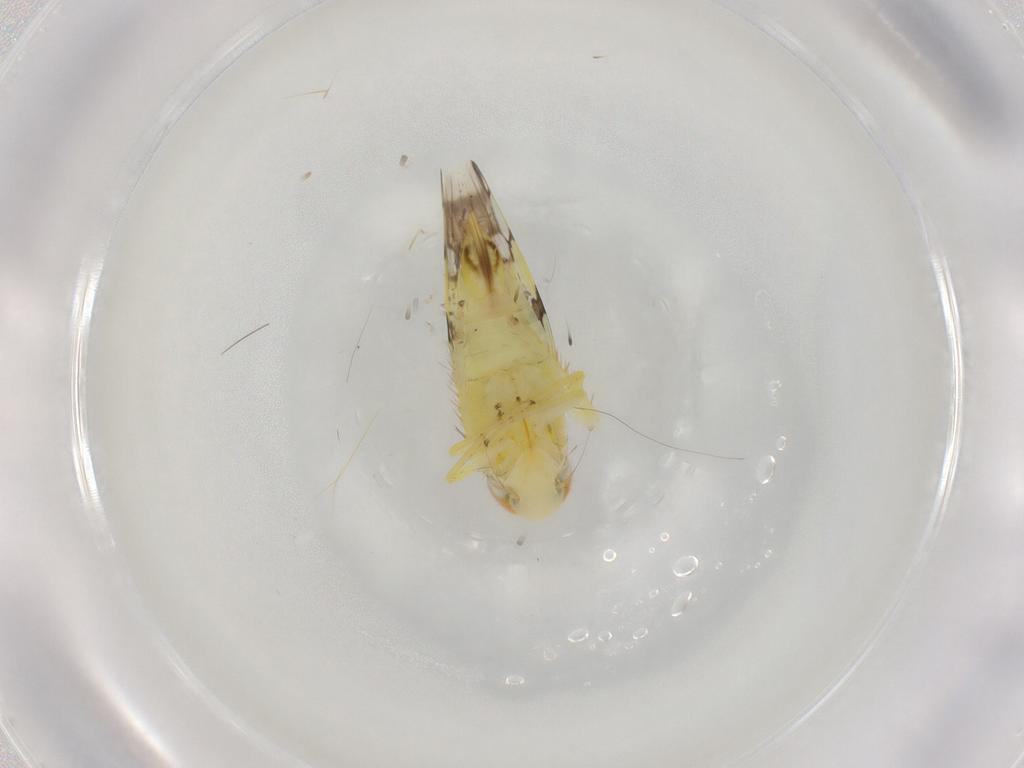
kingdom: Animalia
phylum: Arthropoda
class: Insecta
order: Hemiptera
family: Cicadellidae
